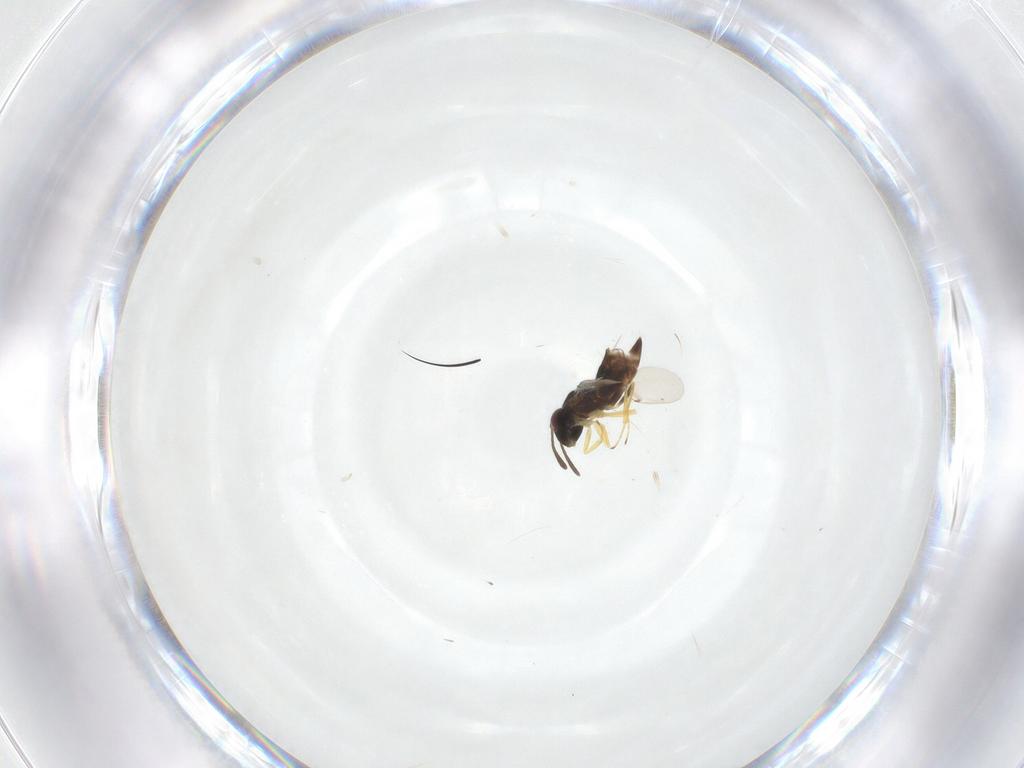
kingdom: Animalia
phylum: Arthropoda
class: Insecta
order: Hymenoptera
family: Encyrtidae
